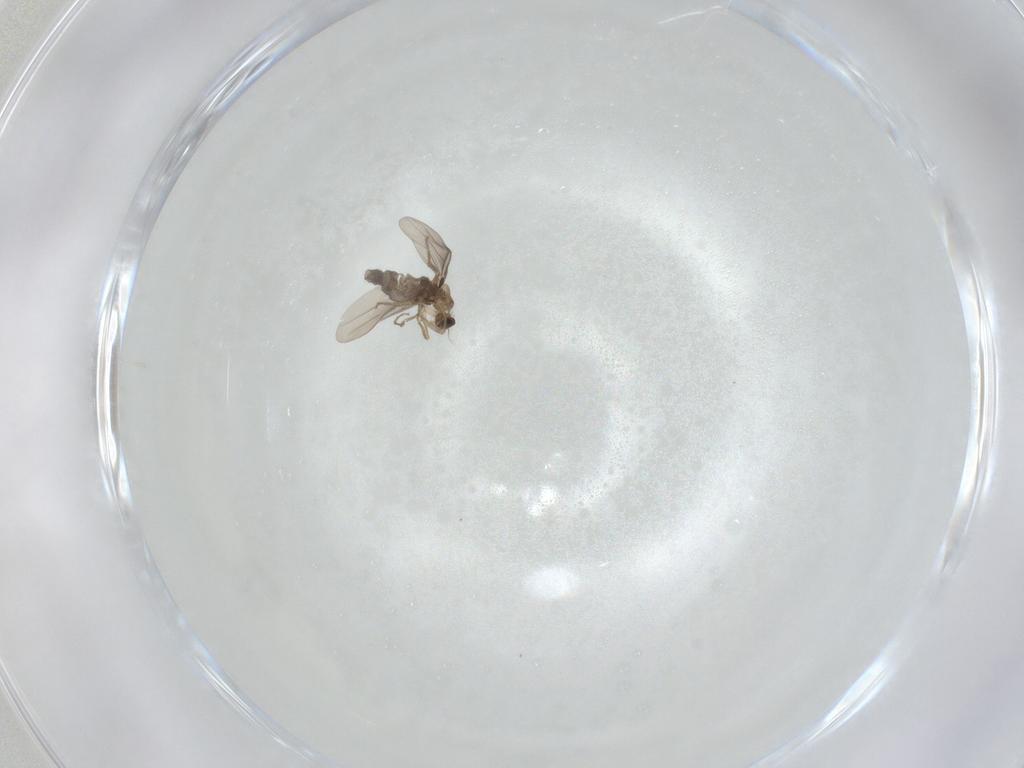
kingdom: Animalia
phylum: Arthropoda
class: Insecta
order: Diptera
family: Phoridae
